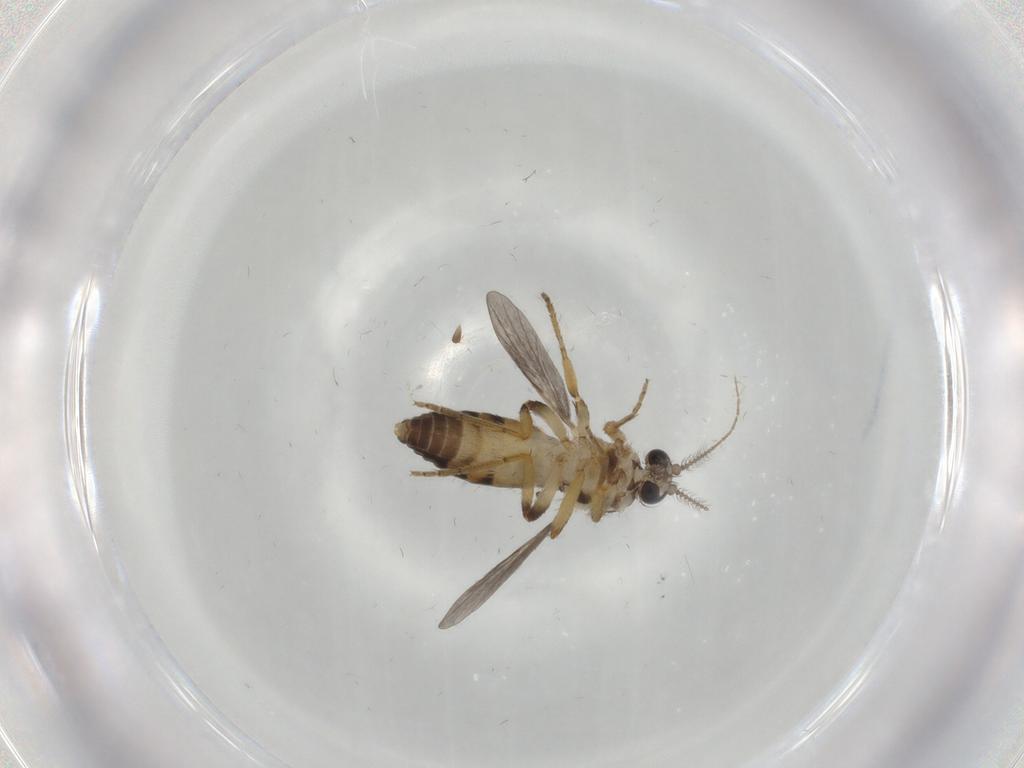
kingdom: Animalia
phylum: Arthropoda
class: Insecta
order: Diptera
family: Ceratopogonidae
